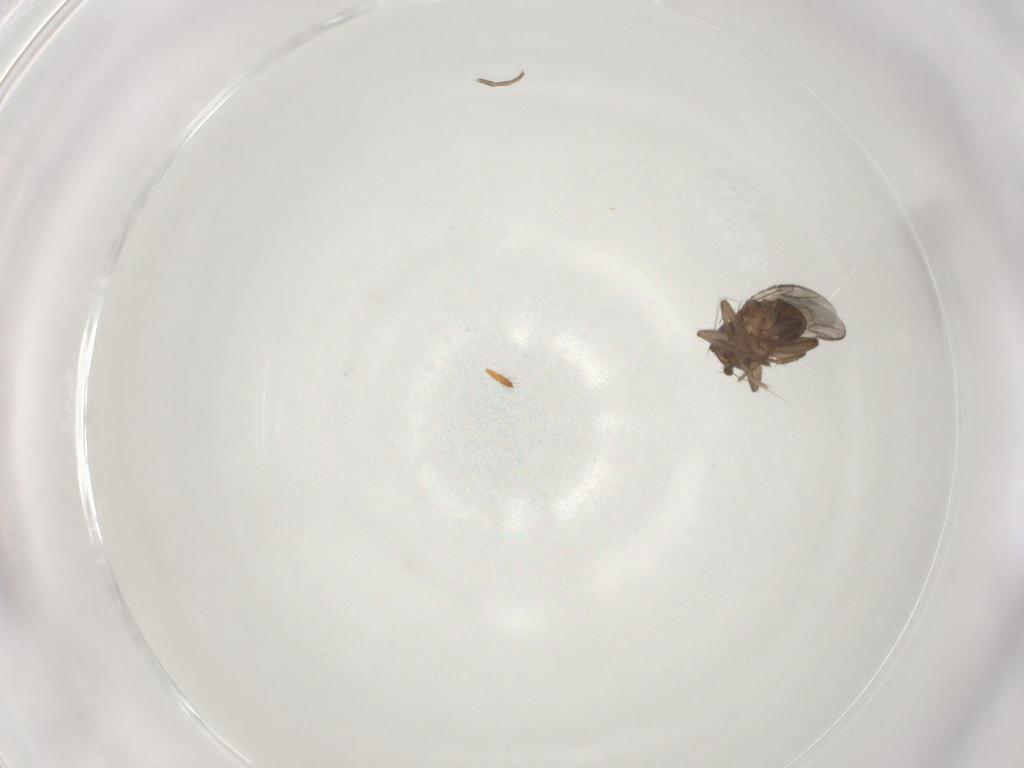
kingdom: Animalia
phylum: Arthropoda
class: Insecta
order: Diptera
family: Sphaeroceridae
